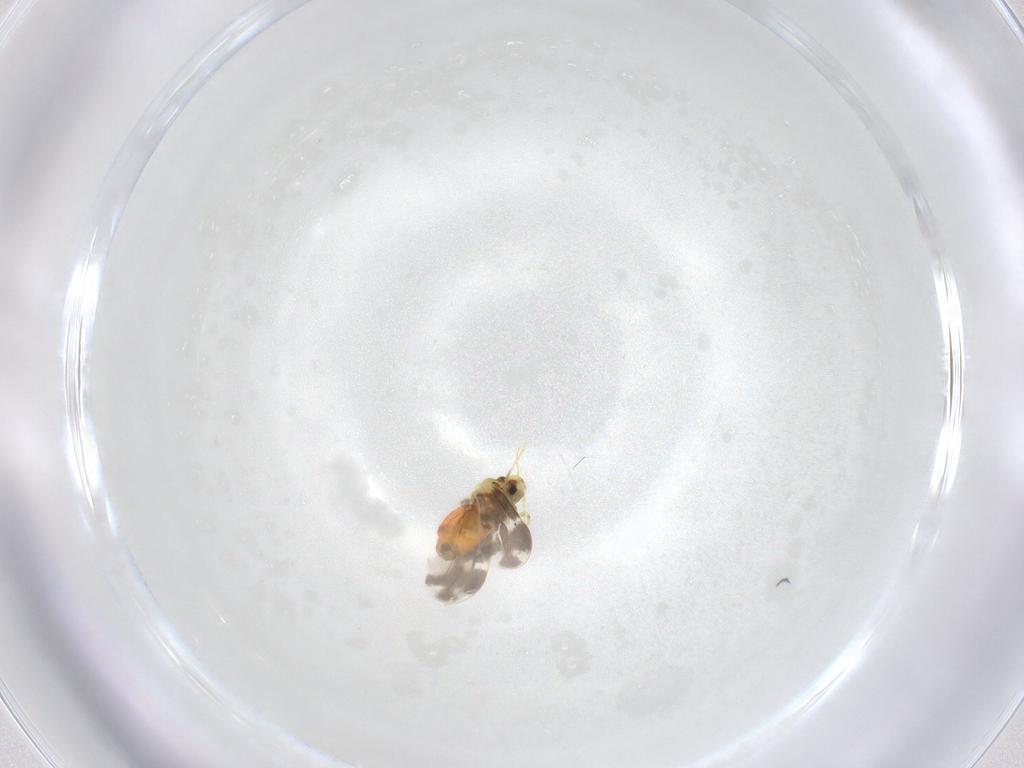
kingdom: Animalia
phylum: Arthropoda
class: Insecta
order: Hemiptera
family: Aleyrodidae
